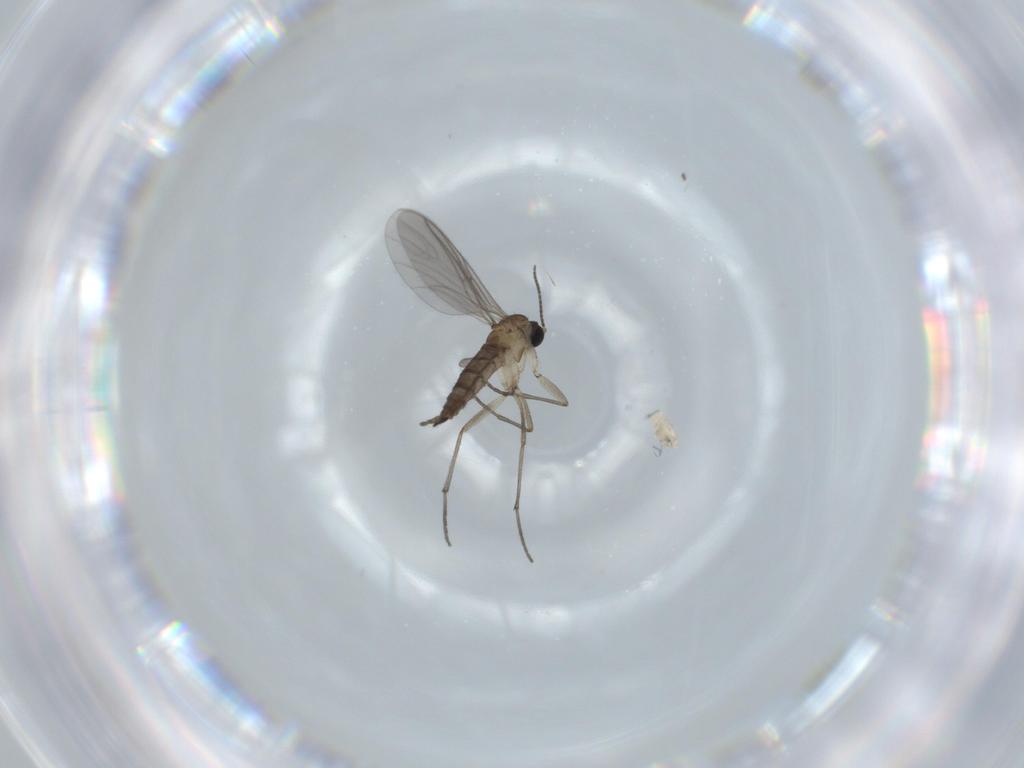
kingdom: Animalia
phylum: Arthropoda
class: Insecta
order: Diptera
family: Sciaridae
